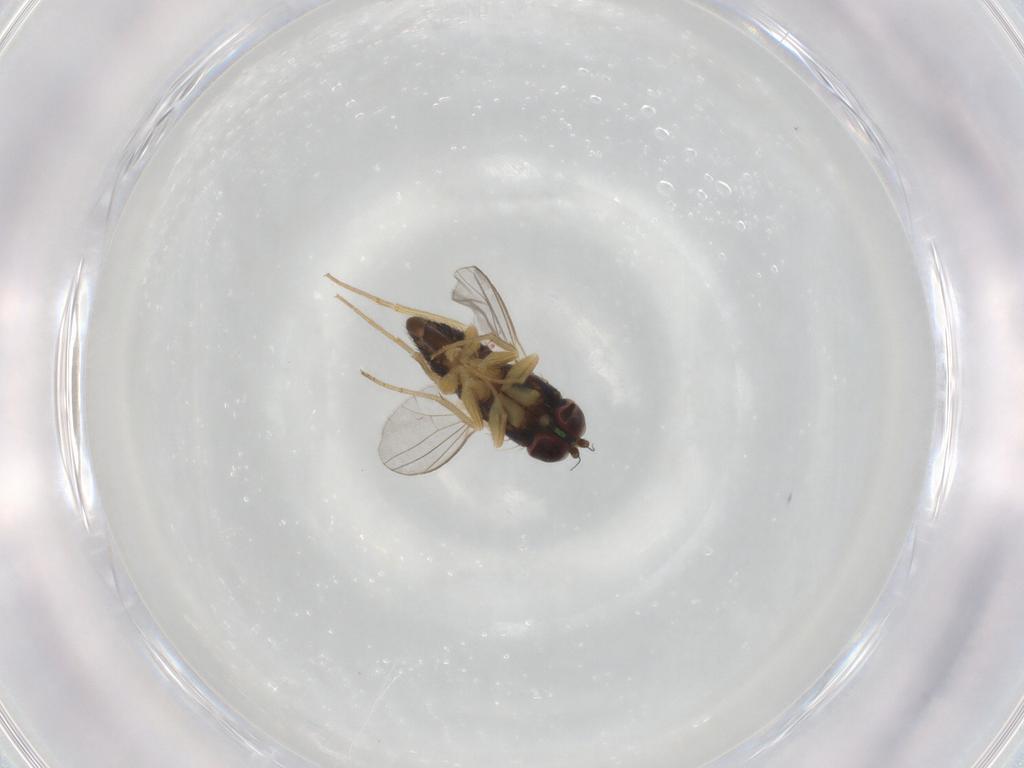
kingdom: Animalia
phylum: Arthropoda
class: Insecta
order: Diptera
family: Dolichopodidae
